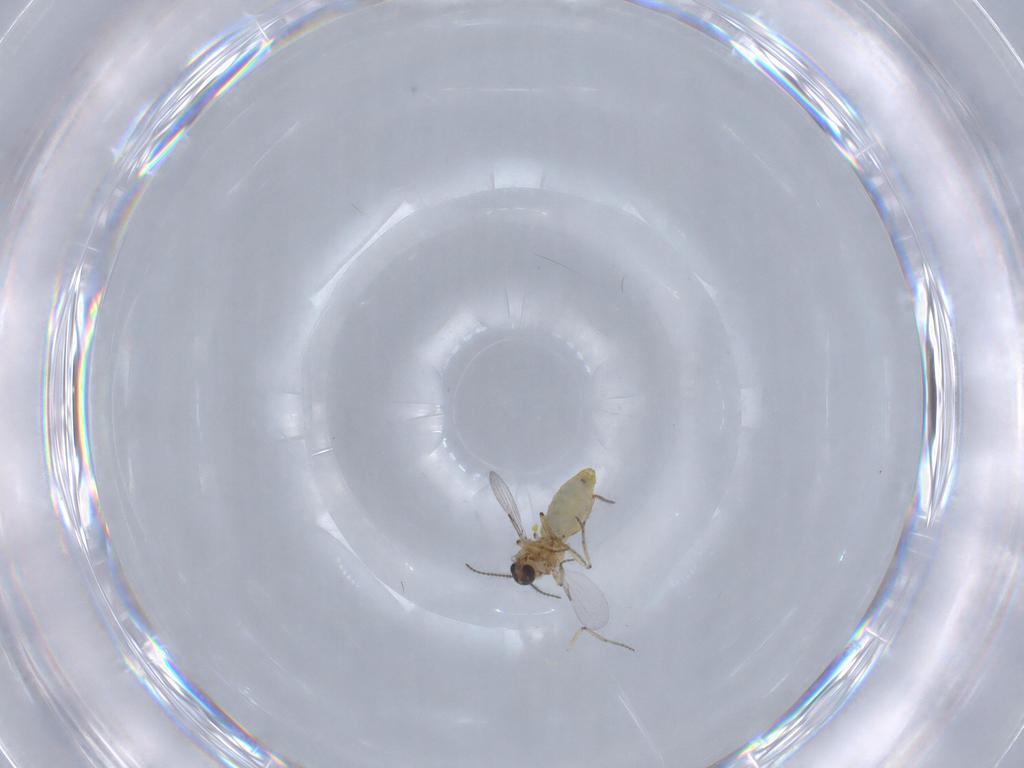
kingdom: Animalia
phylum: Arthropoda
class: Insecta
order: Diptera
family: Ceratopogonidae
